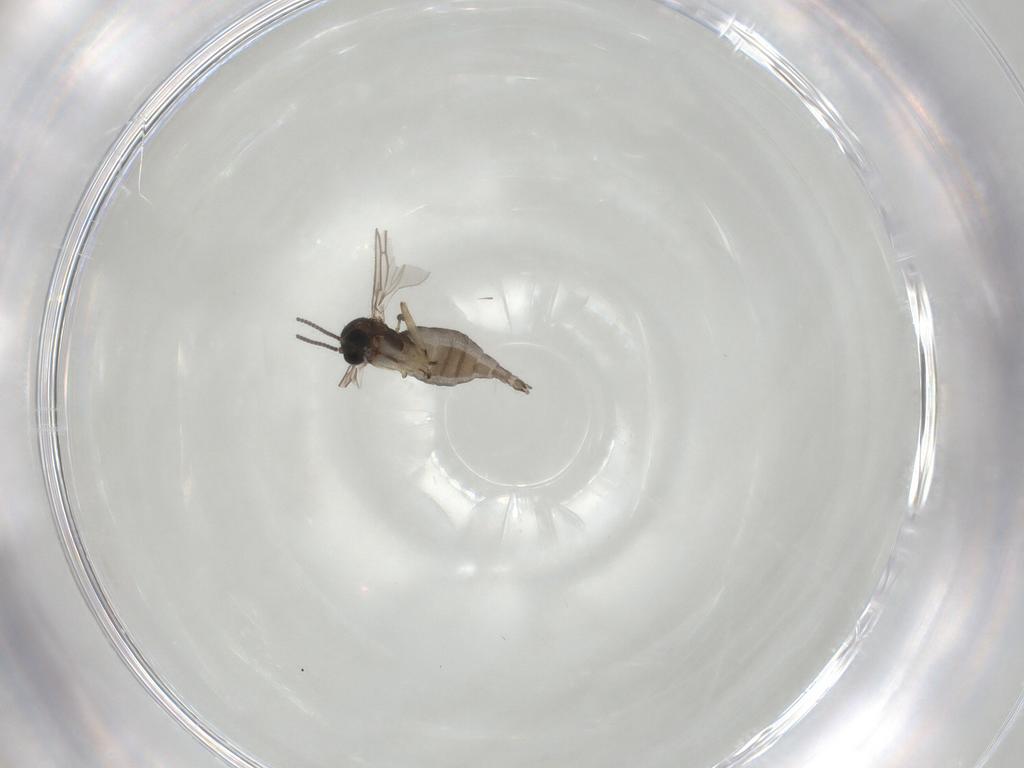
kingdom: Animalia
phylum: Arthropoda
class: Insecta
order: Diptera
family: Sciaridae
